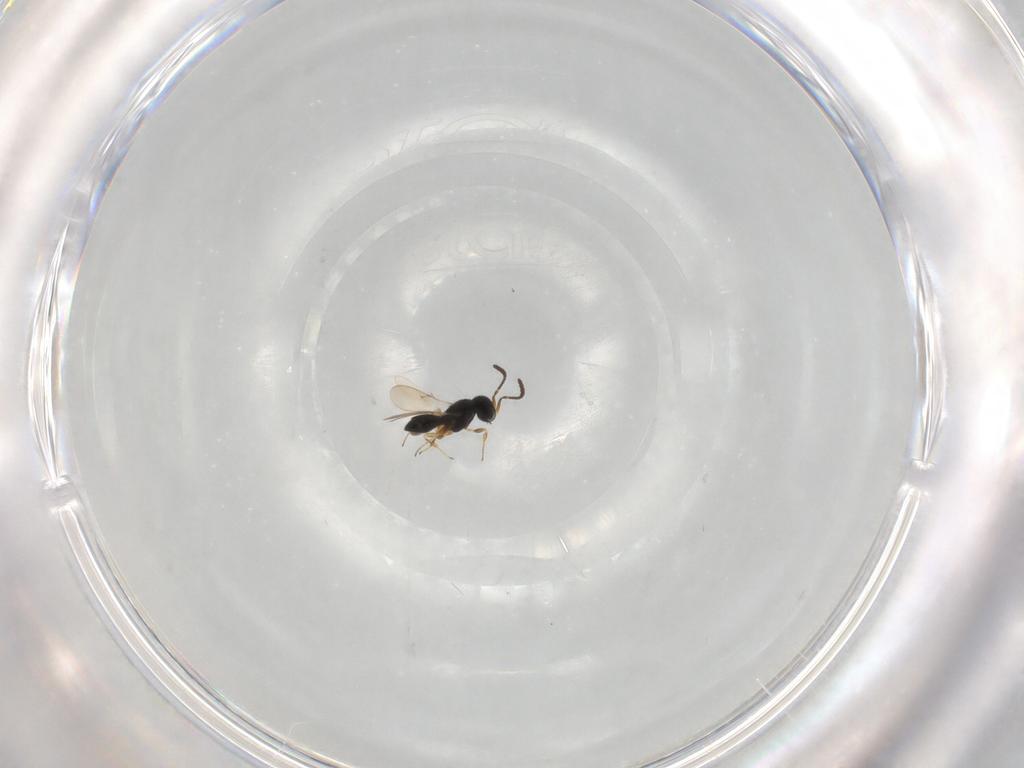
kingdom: Animalia
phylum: Arthropoda
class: Insecta
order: Hymenoptera
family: Scelionidae
